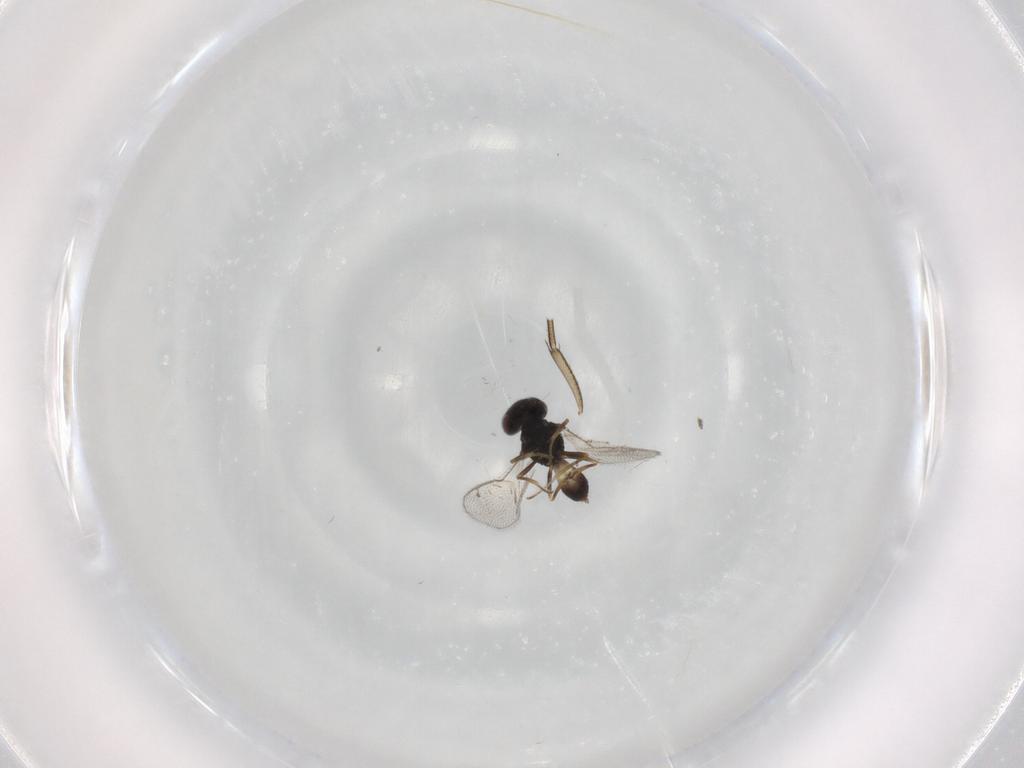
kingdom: Animalia
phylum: Arthropoda
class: Insecta
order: Hymenoptera
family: Pteromalidae
